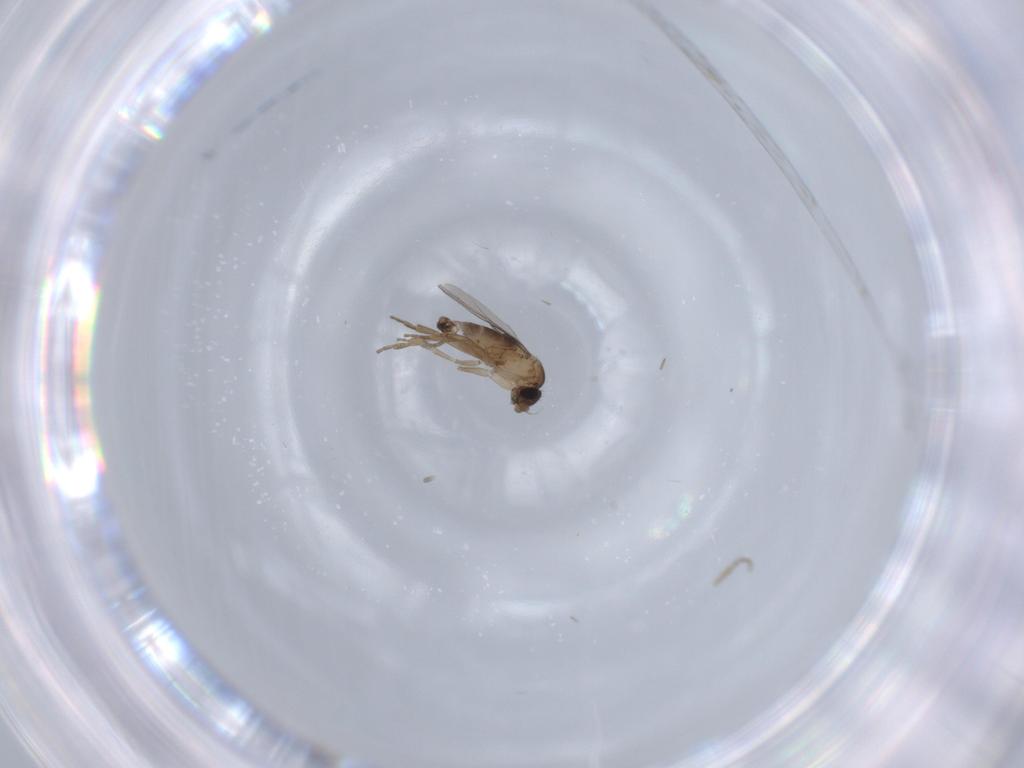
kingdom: Animalia
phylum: Arthropoda
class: Insecta
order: Diptera
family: Phoridae
